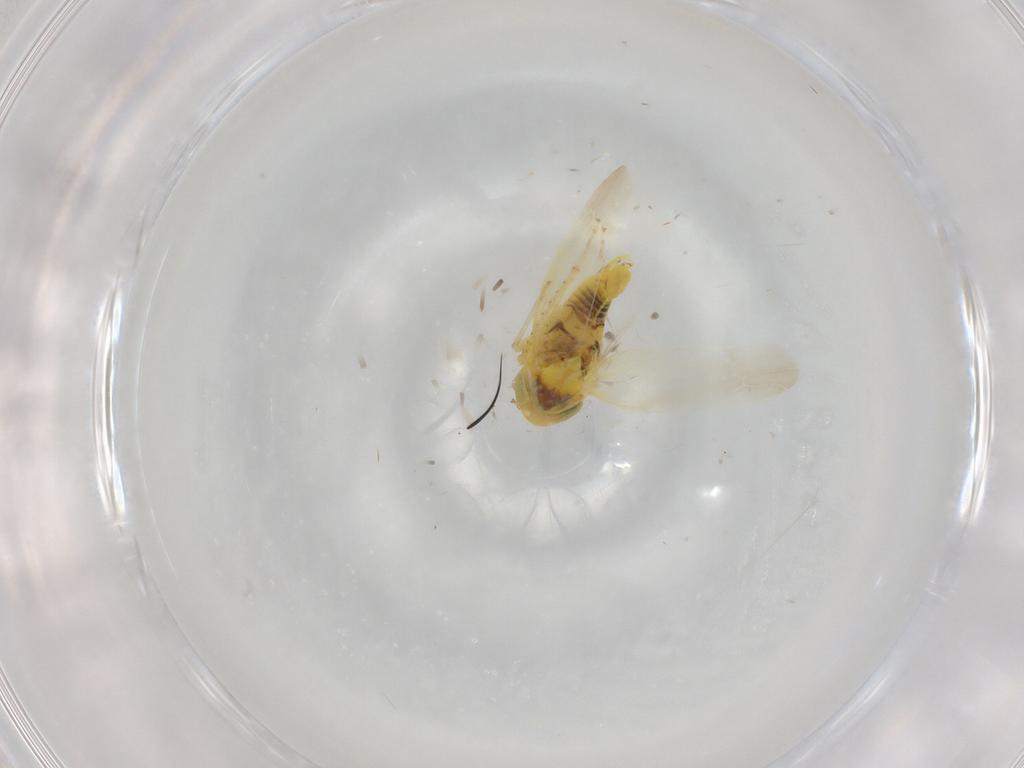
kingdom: Animalia
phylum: Arthropoda
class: Insecta
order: Hemiptera
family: Cicadellidae
